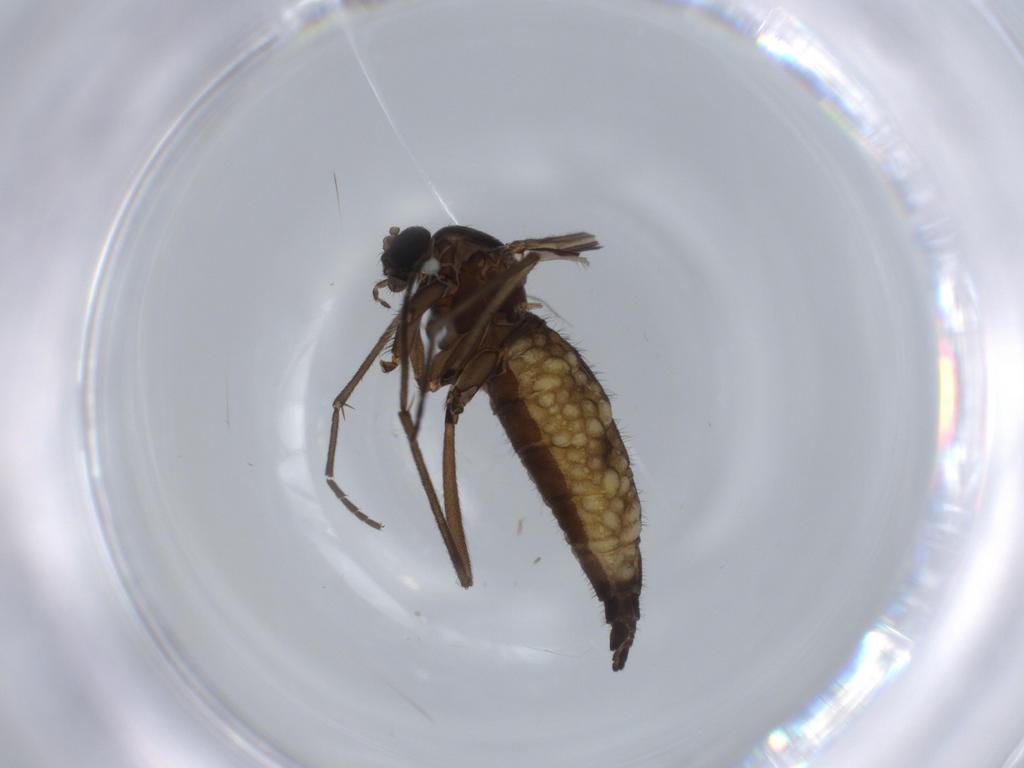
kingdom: Animalia
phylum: Arthropoda
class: Insecta
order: Diptera
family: Sciaridae
